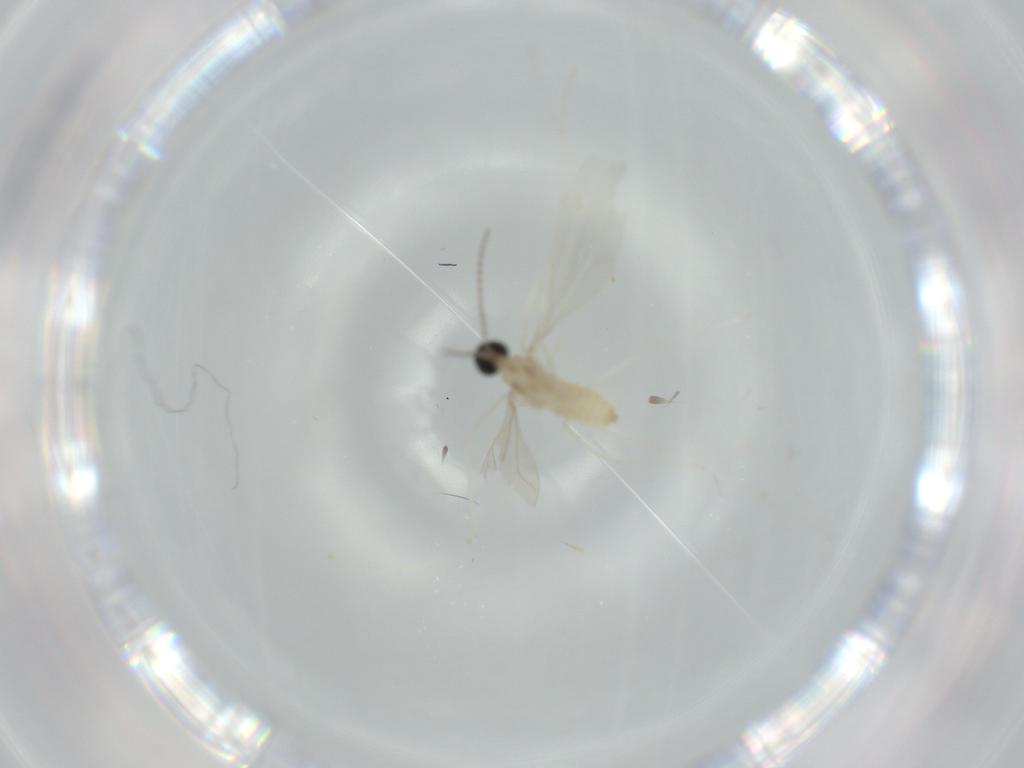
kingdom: Animalia
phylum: Arthropoda
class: Insecta
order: Diptera
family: Cecidomyiidae
